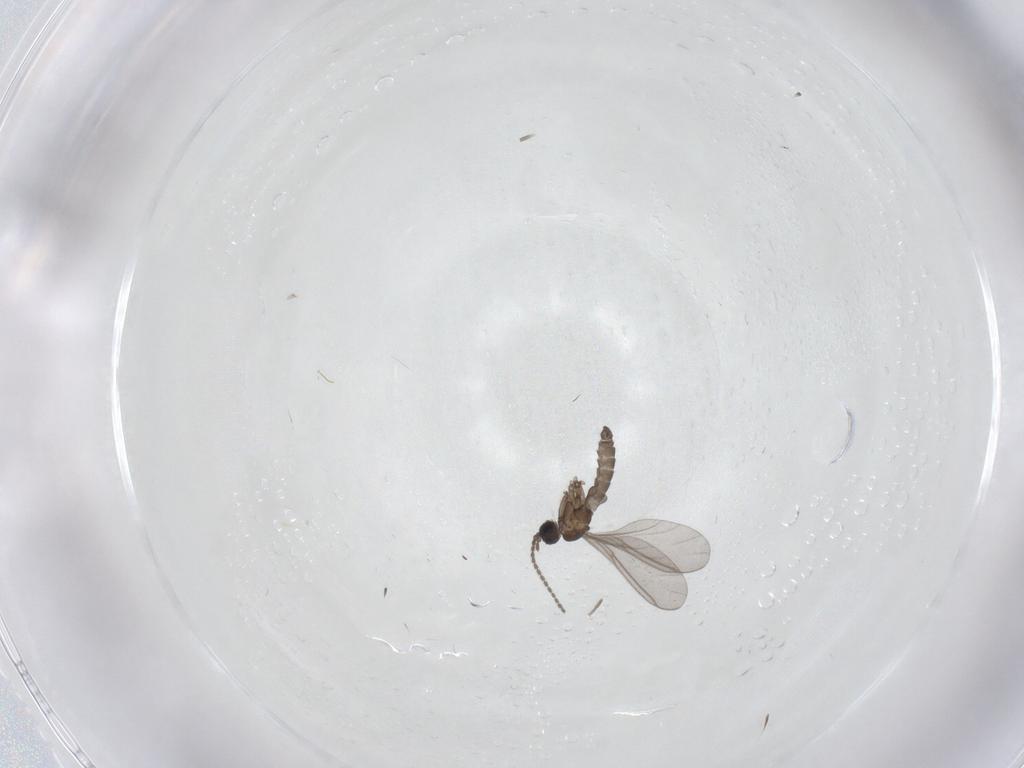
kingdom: Animalia
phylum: Arthropoda
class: Insecta
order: Diptera
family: Sciaridae
